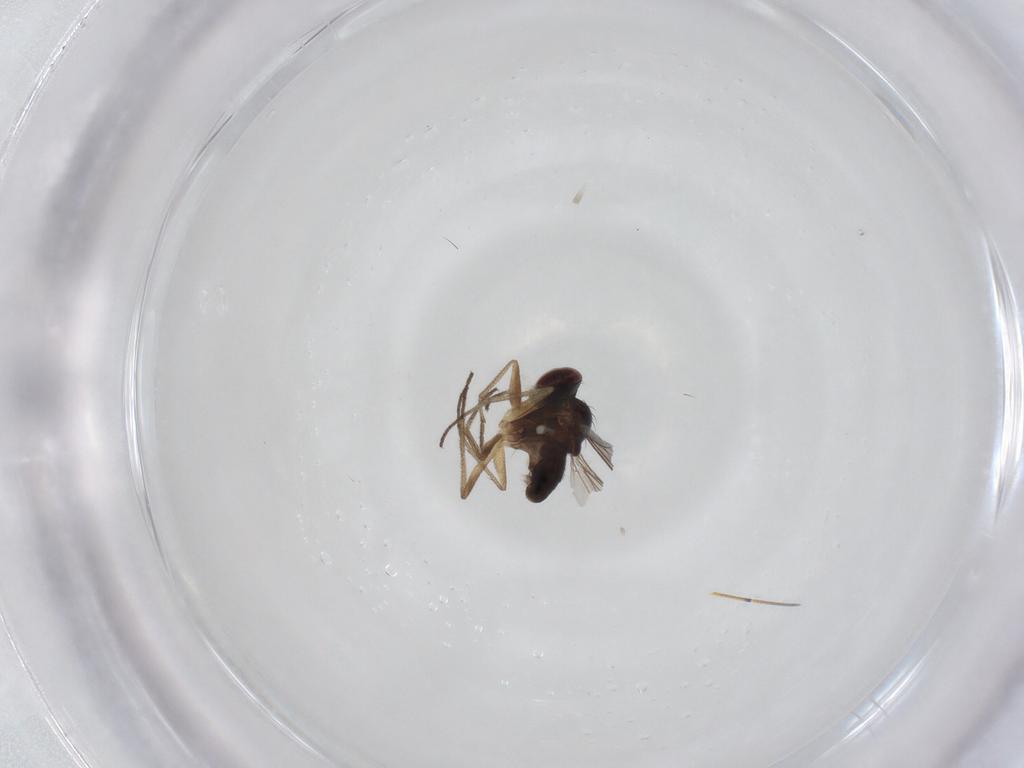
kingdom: Animalia
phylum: Arthropoda
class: Insecta
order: Diptera
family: Dolichopodidae
